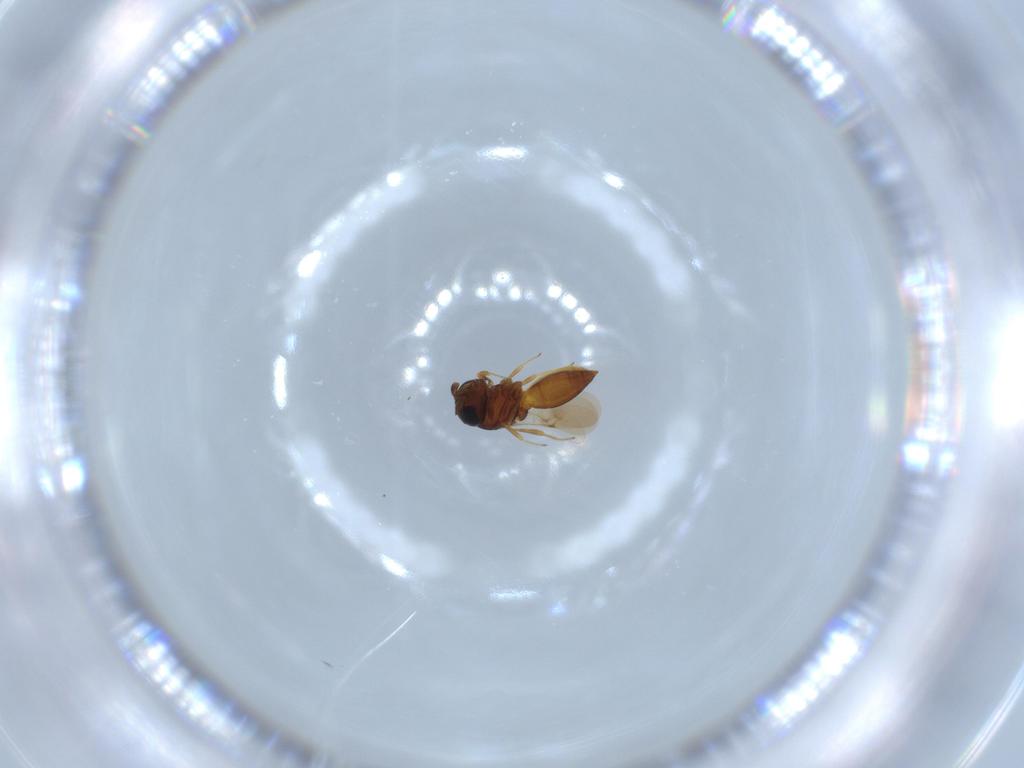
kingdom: Animalia
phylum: Arthropoda
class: Insecta
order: Hymenoptera
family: Scelionidae
